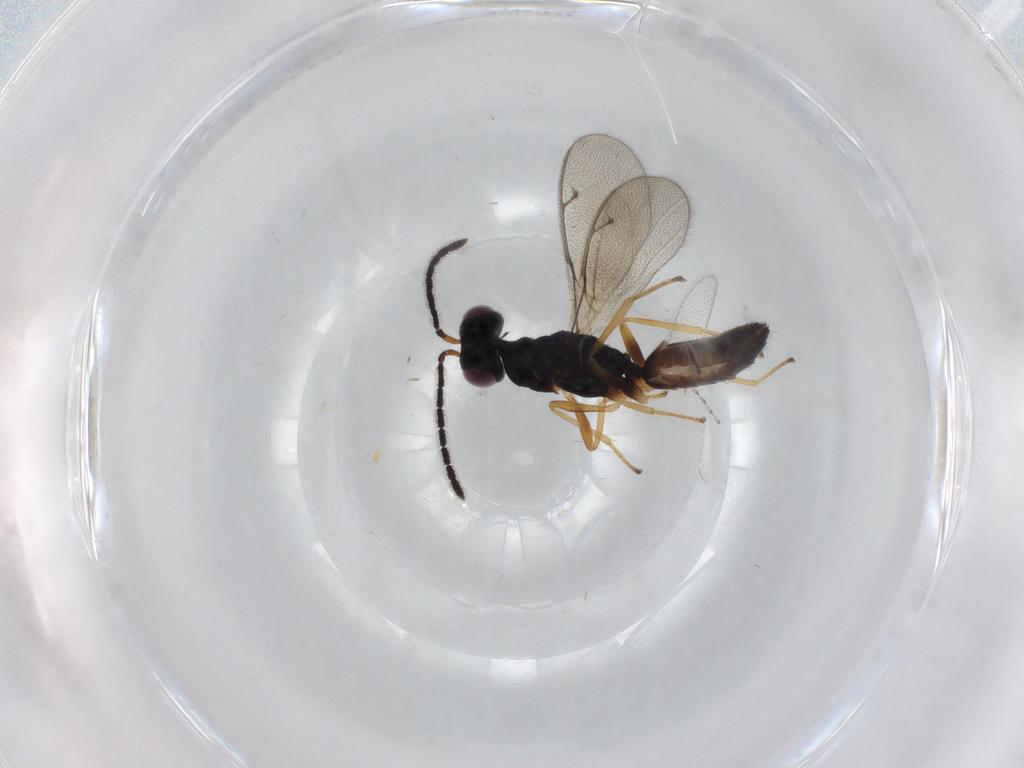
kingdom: Animalia
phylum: Arthropoda
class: Insecta
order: Hymenoptera
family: Pteromalidae
